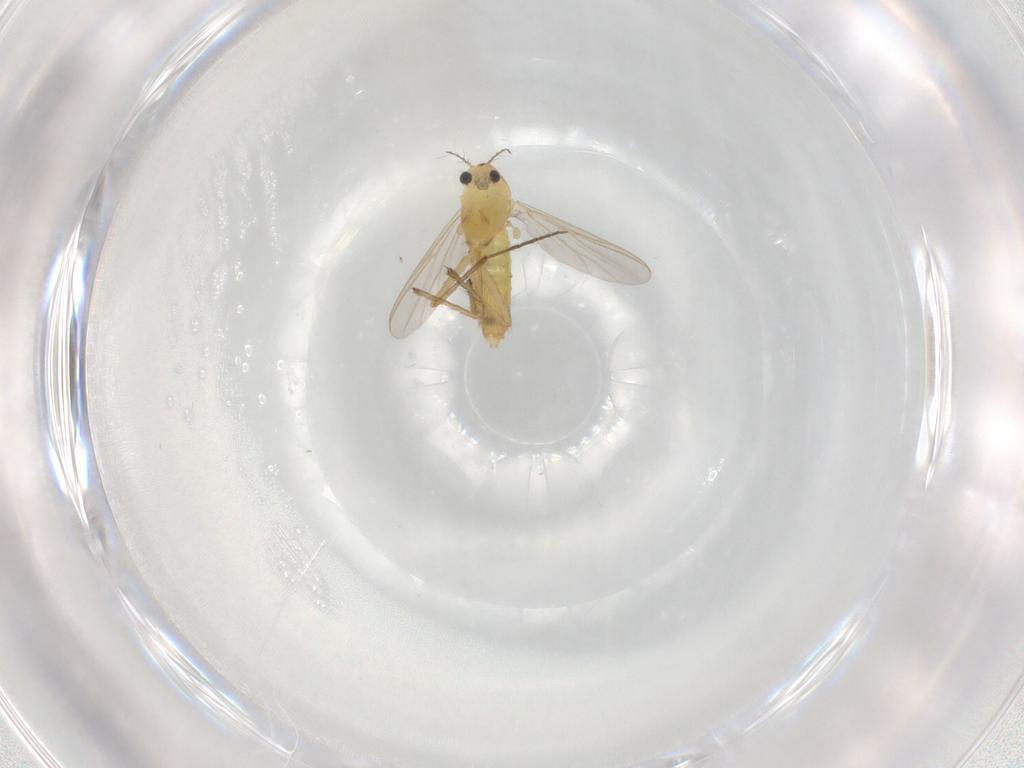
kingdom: Animalia
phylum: Arthropoda
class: Insecta
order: Diptera
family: Chironomidae
